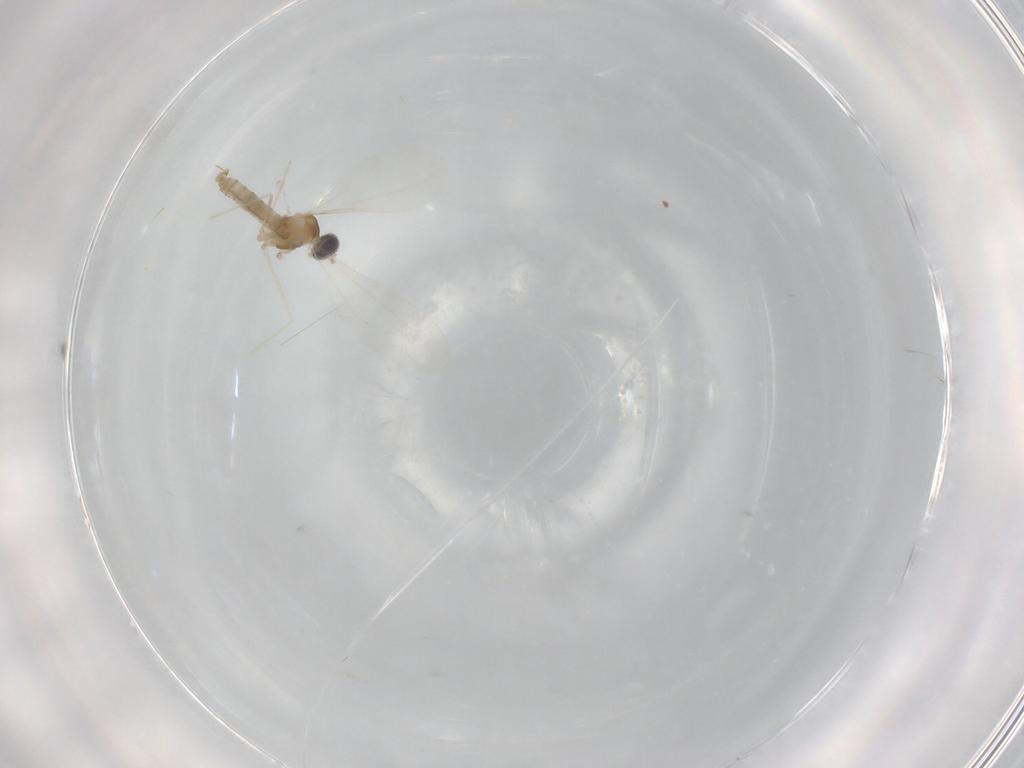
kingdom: Animalia
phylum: Arthropoda
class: Insecta
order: Diptera
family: Cecidomyiidae
